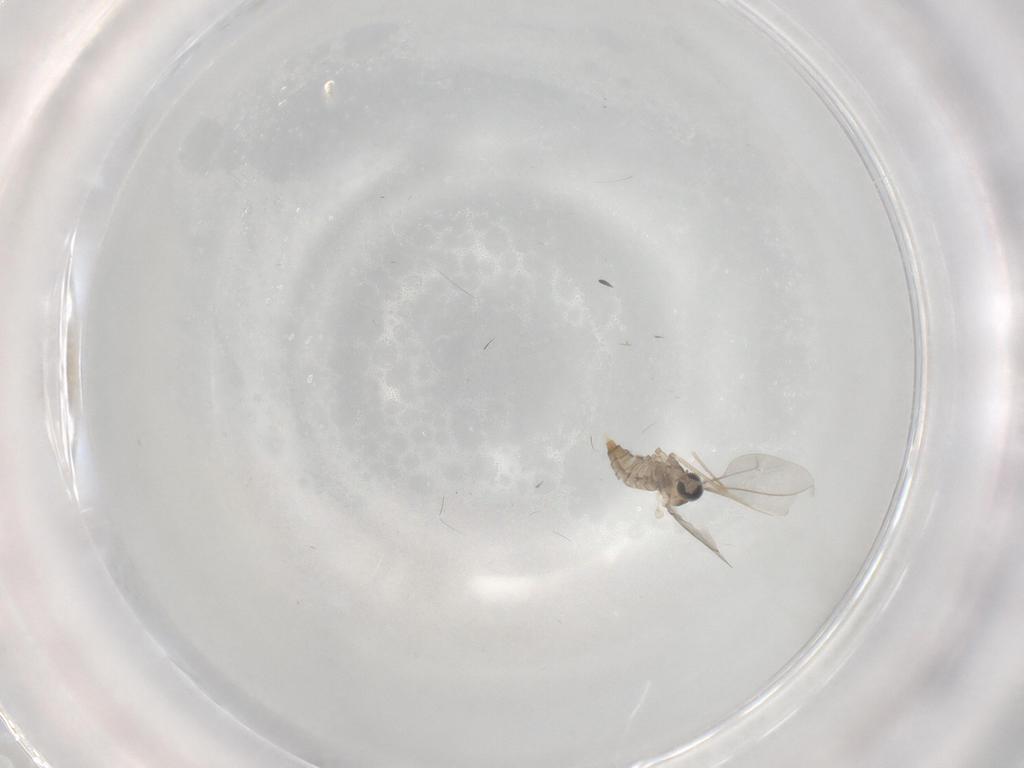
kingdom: Animalia
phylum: Arthropoda
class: Insecta
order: Diptera
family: Cecidomyiidae
